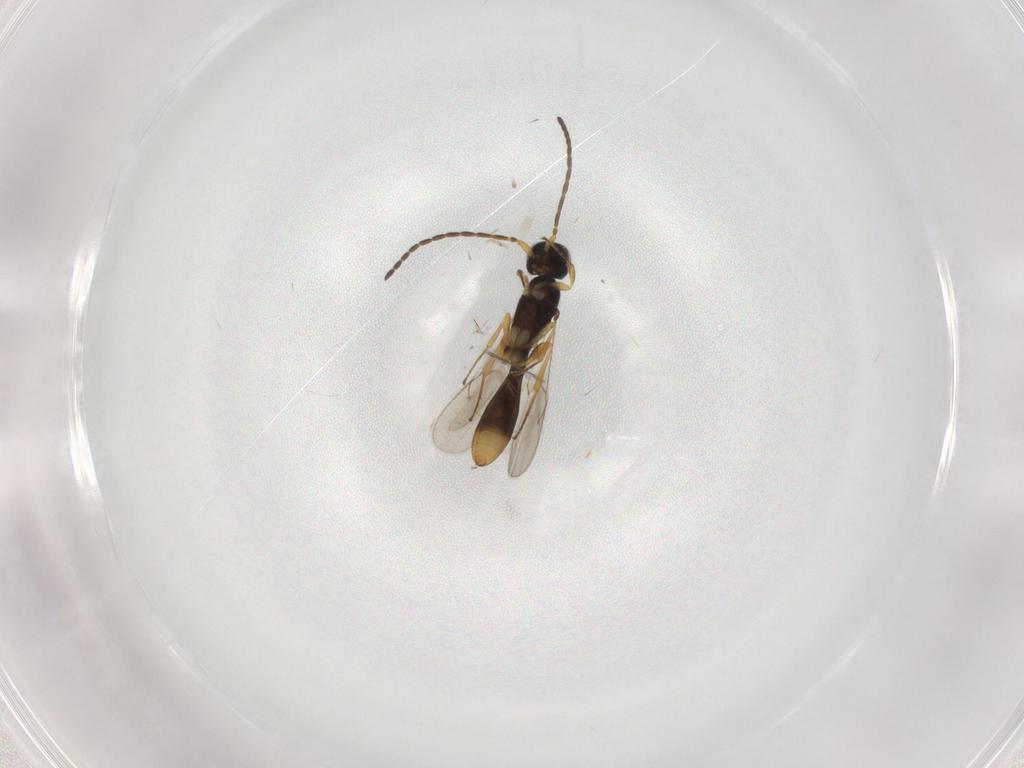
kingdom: Animalia
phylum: Arthropoda
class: Insecta
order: Hymenoptera
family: Scelionidae
